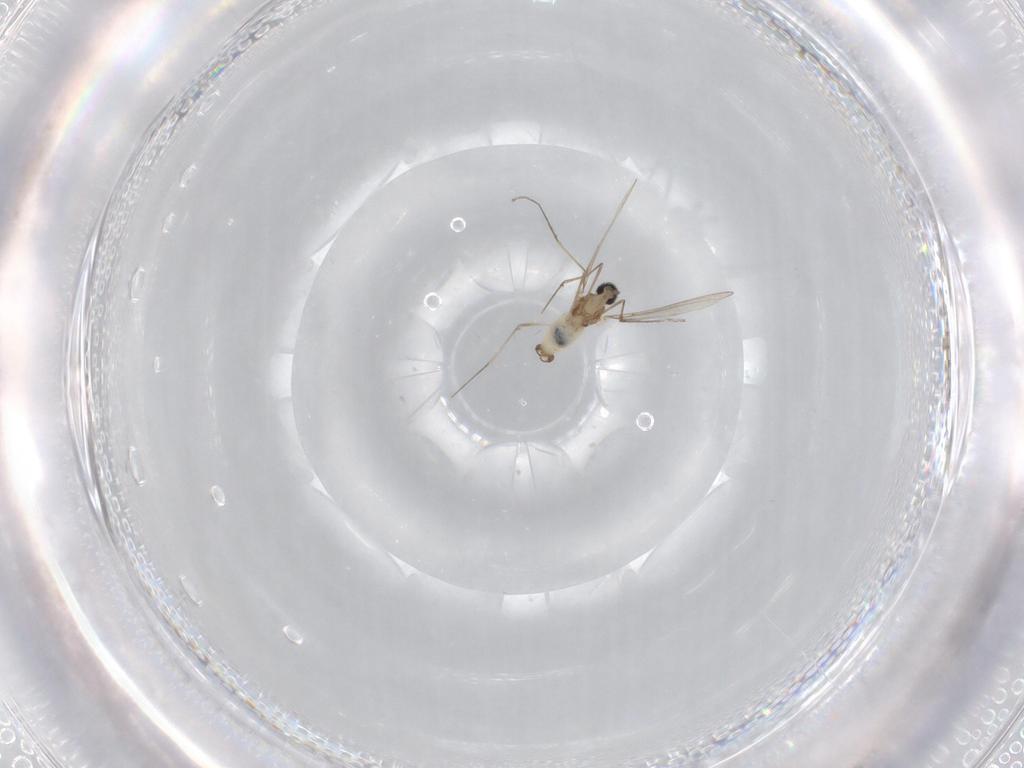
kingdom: Animalia
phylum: Arthropoda
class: Insecta
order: Diptera
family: Cecidomyiidae
